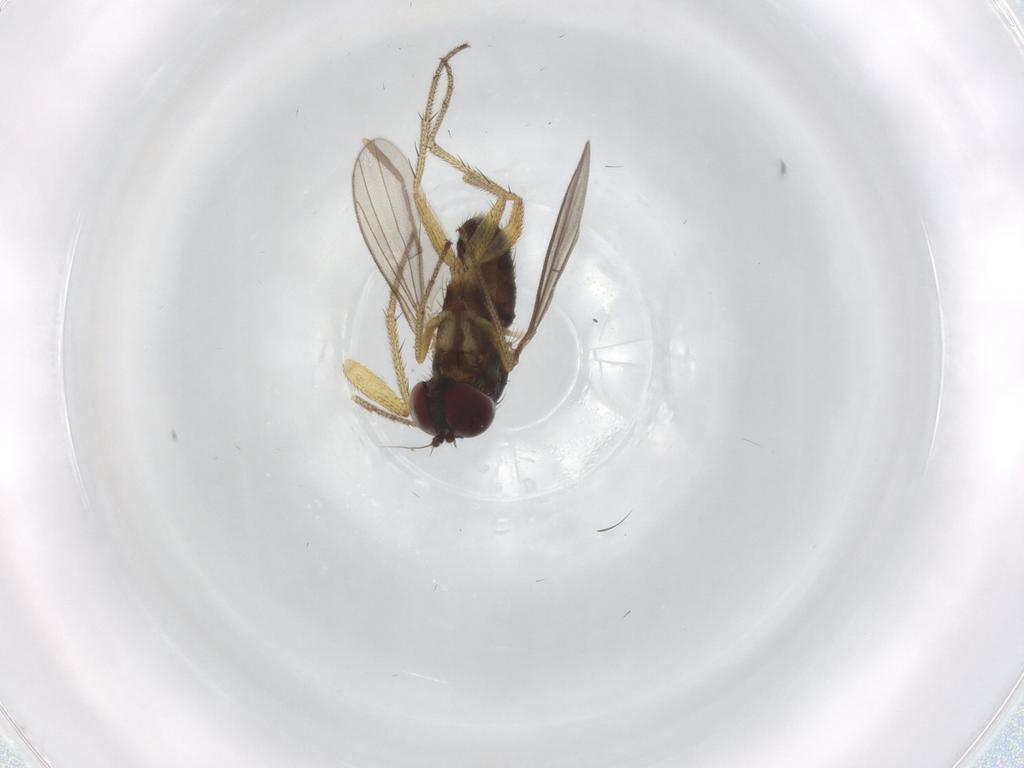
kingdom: Animalia
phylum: Arthropoda
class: Insecta
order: Diptera
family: Dolichopodidae
